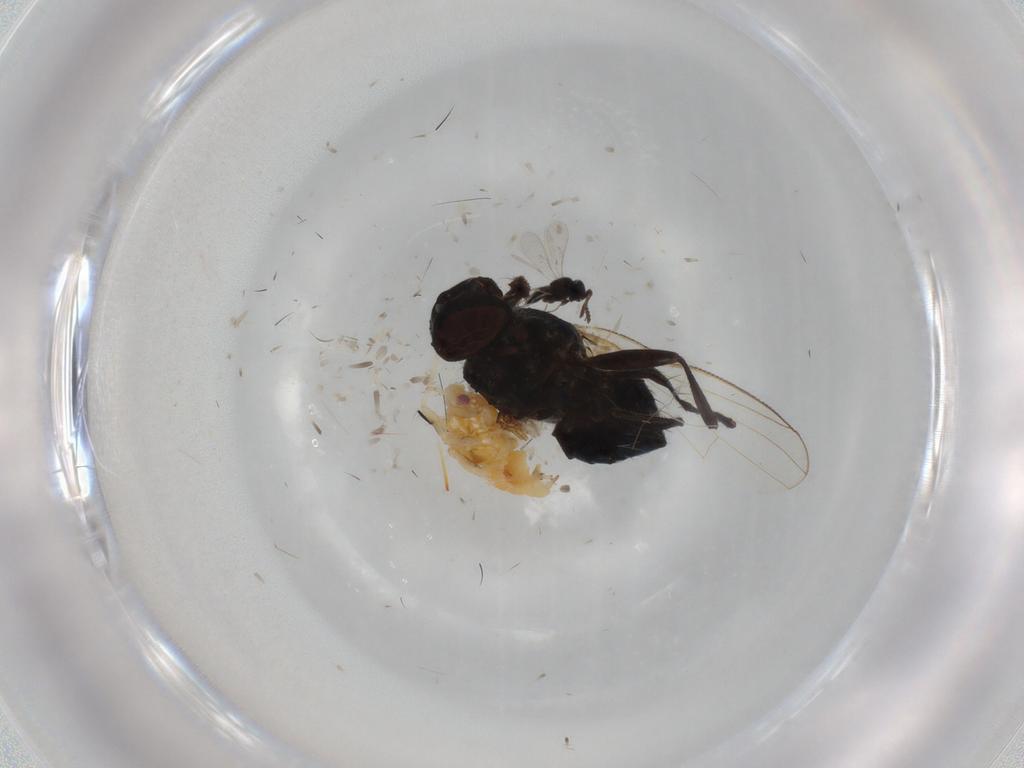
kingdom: Animalia
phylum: Arthropoda
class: Insecta
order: Diptera
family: Muscidae
